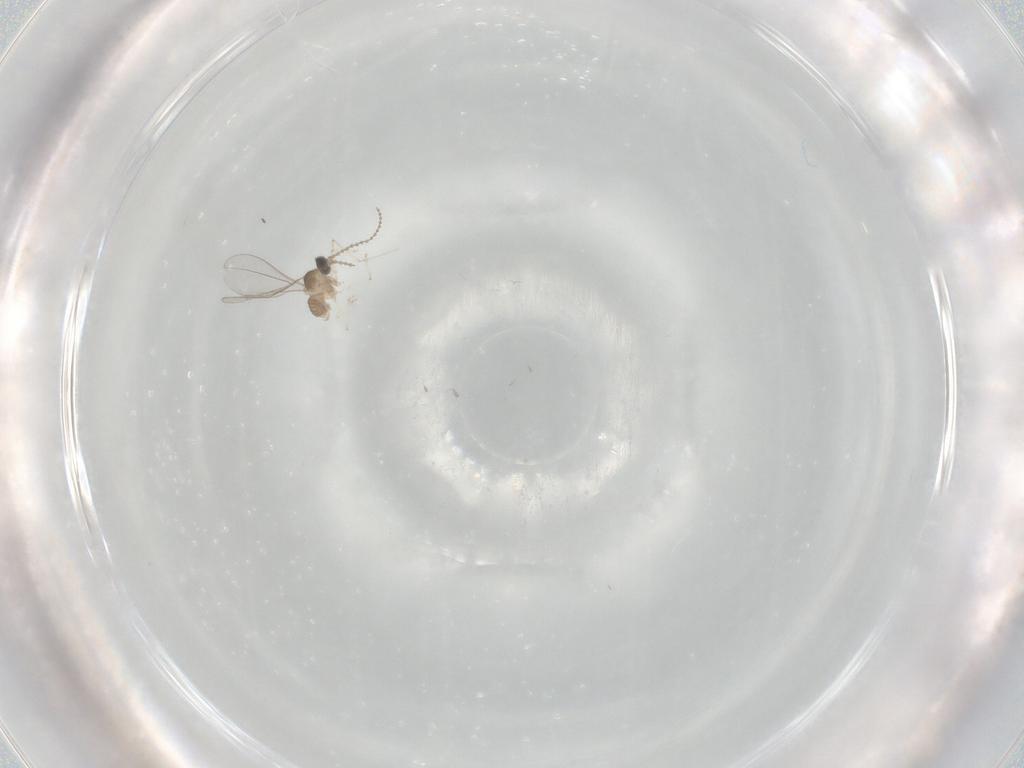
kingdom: Animalia
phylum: Arthropoda
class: Insecta
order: Diptera
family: Cecidomyiidae
